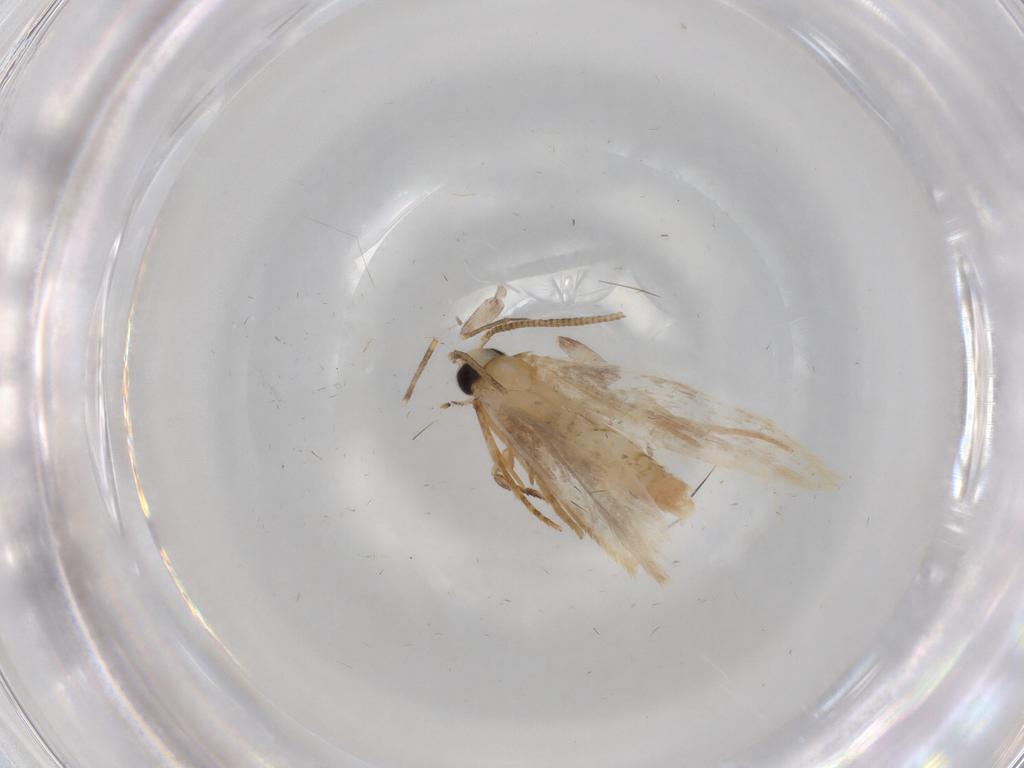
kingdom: Animalia
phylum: Arthropoda
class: Insecta
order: Lepidoptera
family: Tineidae
